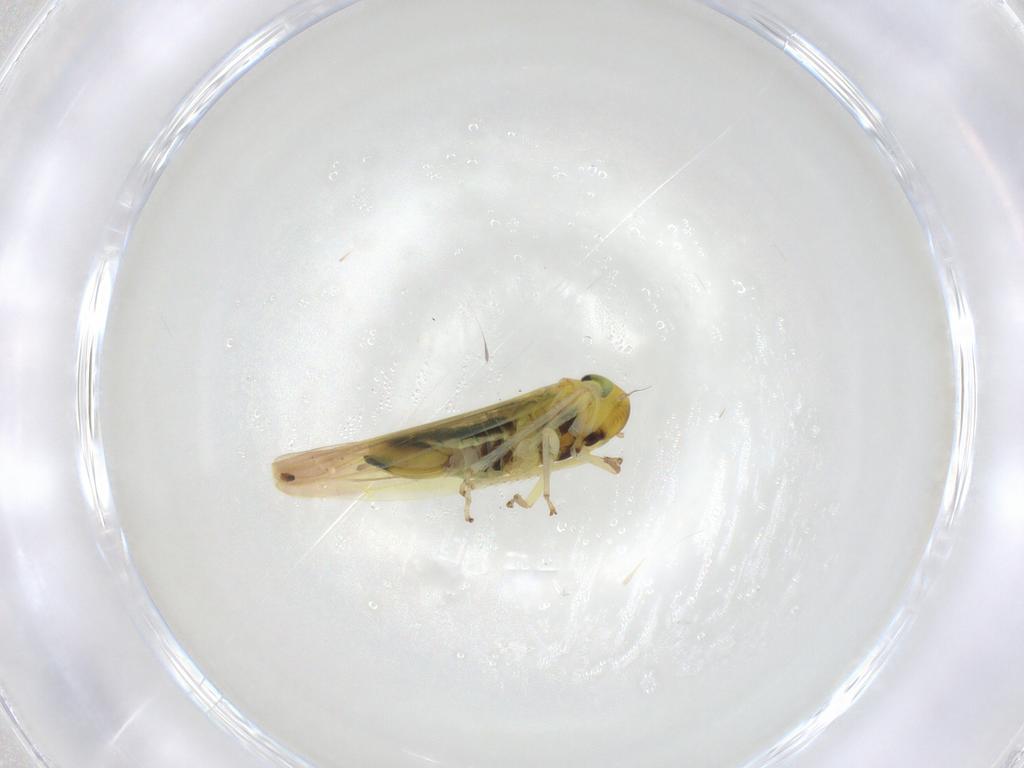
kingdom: Animalia
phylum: Arthropoda
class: Insecta
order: Hemiptera
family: Cicadellidae
